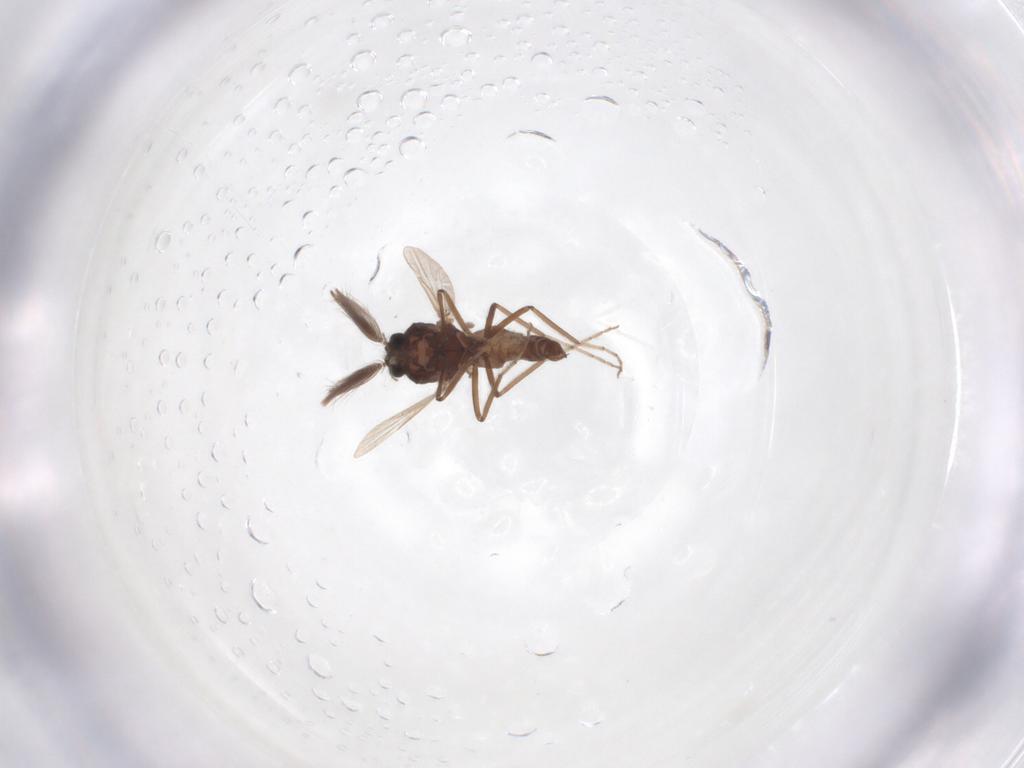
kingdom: Animalia
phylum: Arthropoda
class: Insecta
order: Diptera
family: Ceratopogonidae
